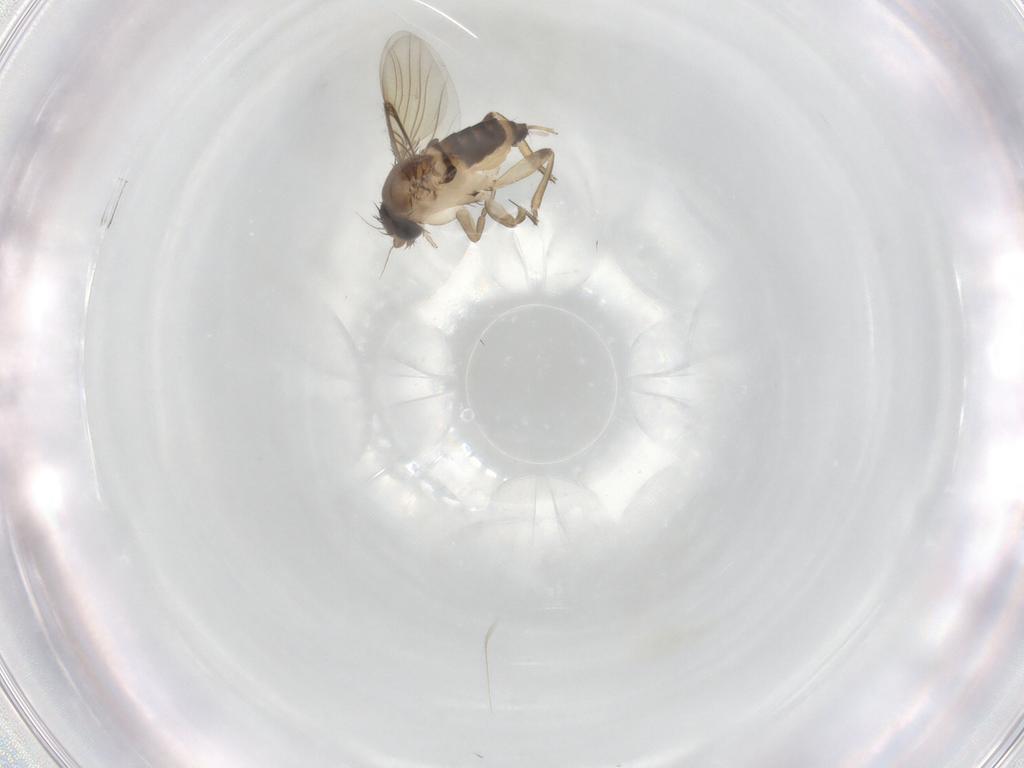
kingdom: Animalia
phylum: Arthropoda
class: Insecta
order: Diptera
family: Phoridae
